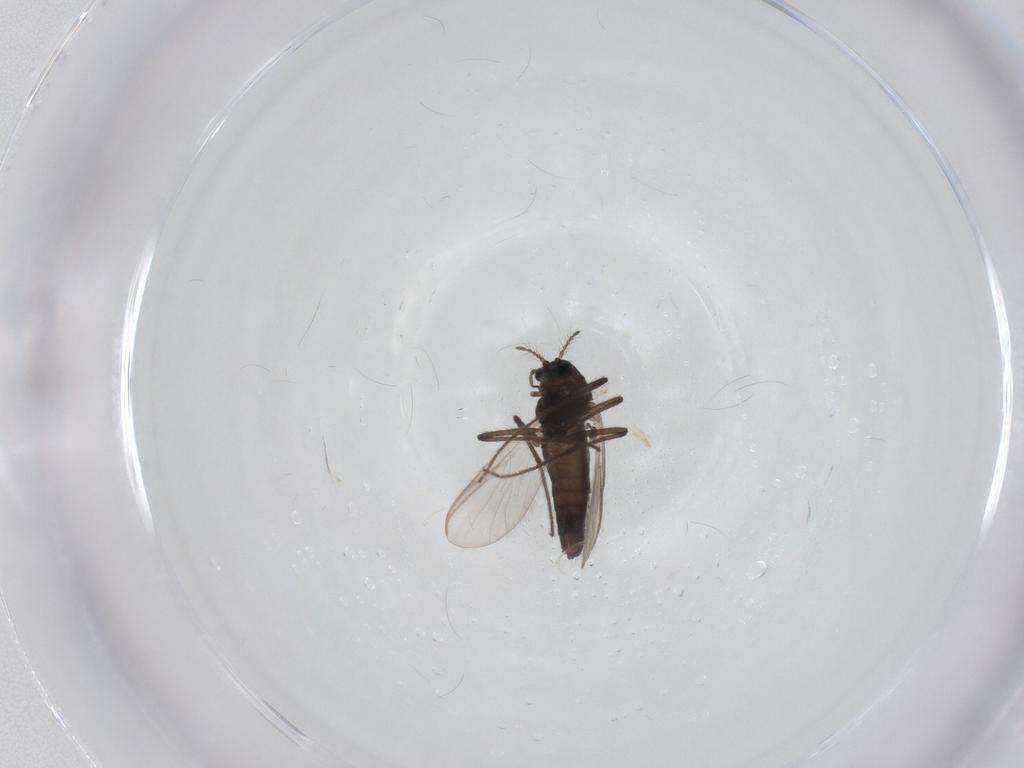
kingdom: Animalia
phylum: Arthropoda
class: Insecta
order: Diptera
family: Chironomidae
